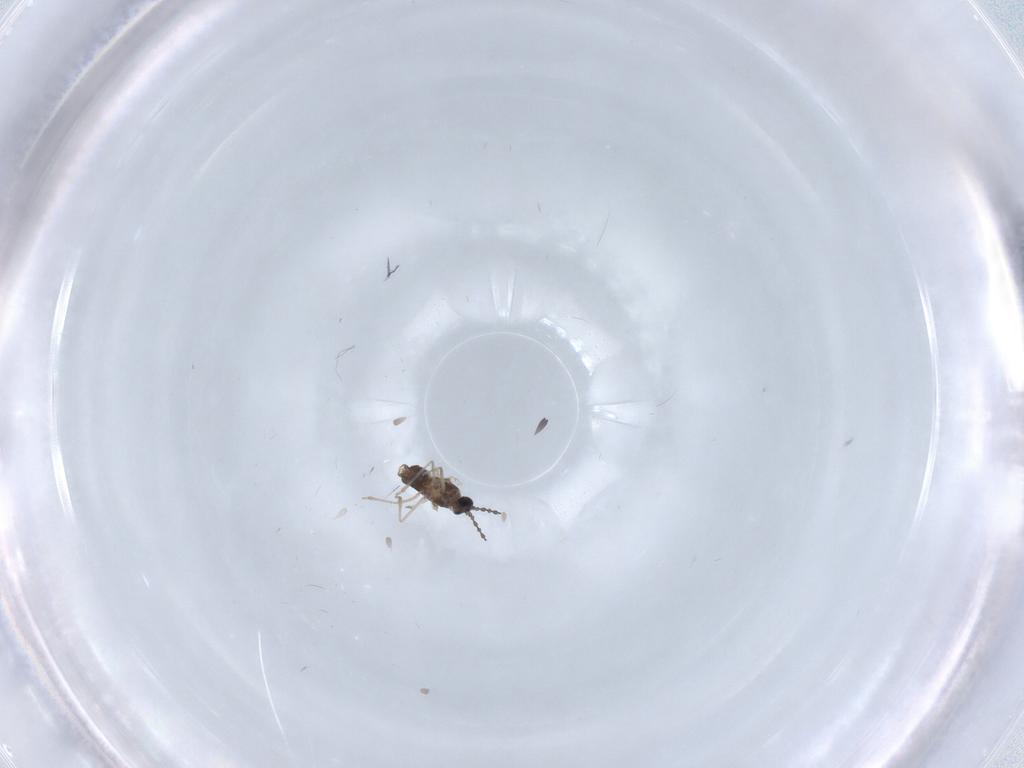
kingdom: Animalia
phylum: Arthropoda
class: Insecta
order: Diptera
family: Cecidomyiidae
